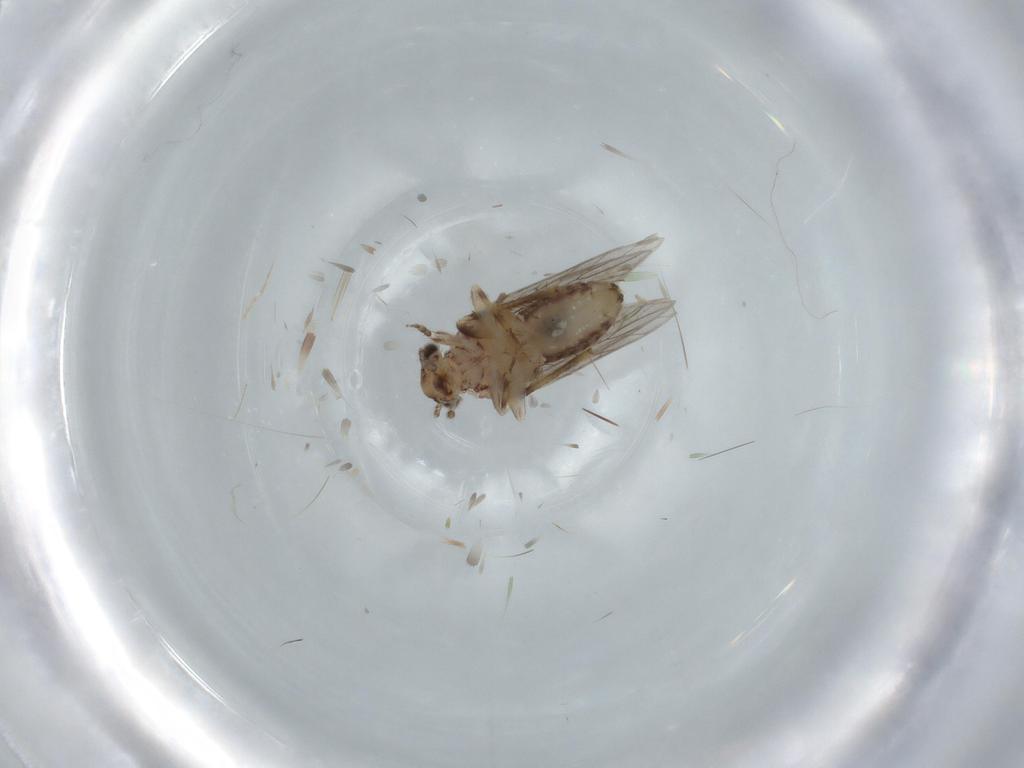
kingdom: Animalia
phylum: Arthropoda
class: Insecta
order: Psocodea
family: Lepidopsocidae
